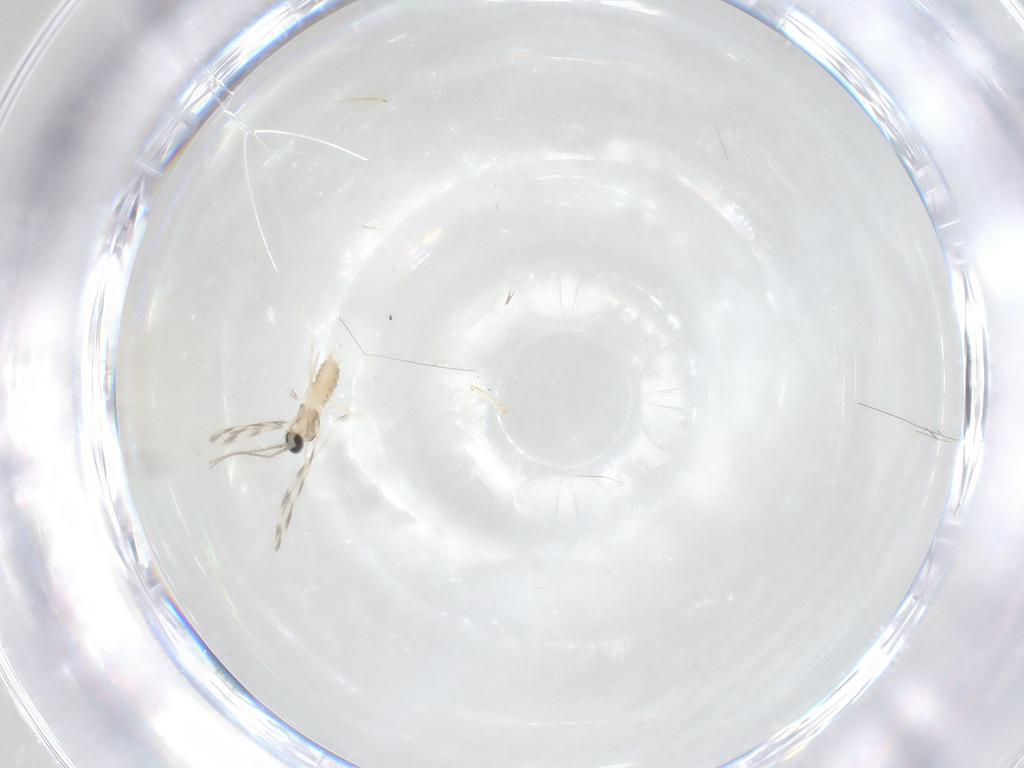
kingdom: Animalia
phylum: Arthropoda
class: Insecta
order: Diptera
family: Cecidomyiidae
